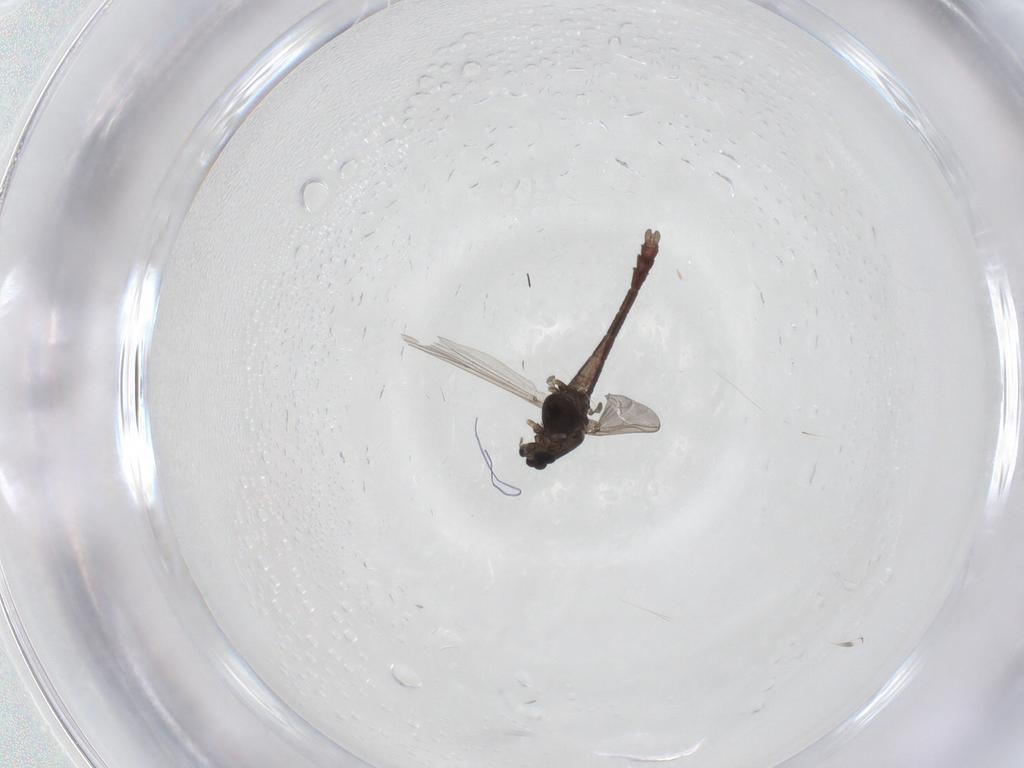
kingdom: Animalia
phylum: Arthropoda
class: Insecta
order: Diptera
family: Chironomidae
